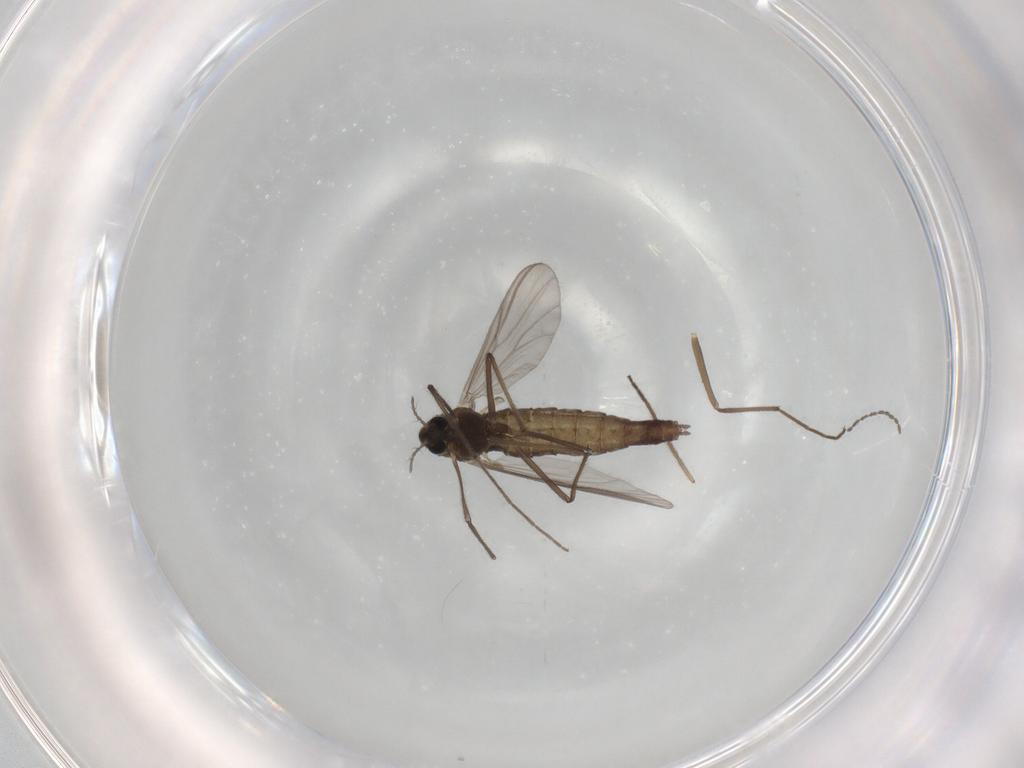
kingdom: Animalia
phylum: Arthropoda
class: Insecta
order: Diptera
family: Chironomidae
